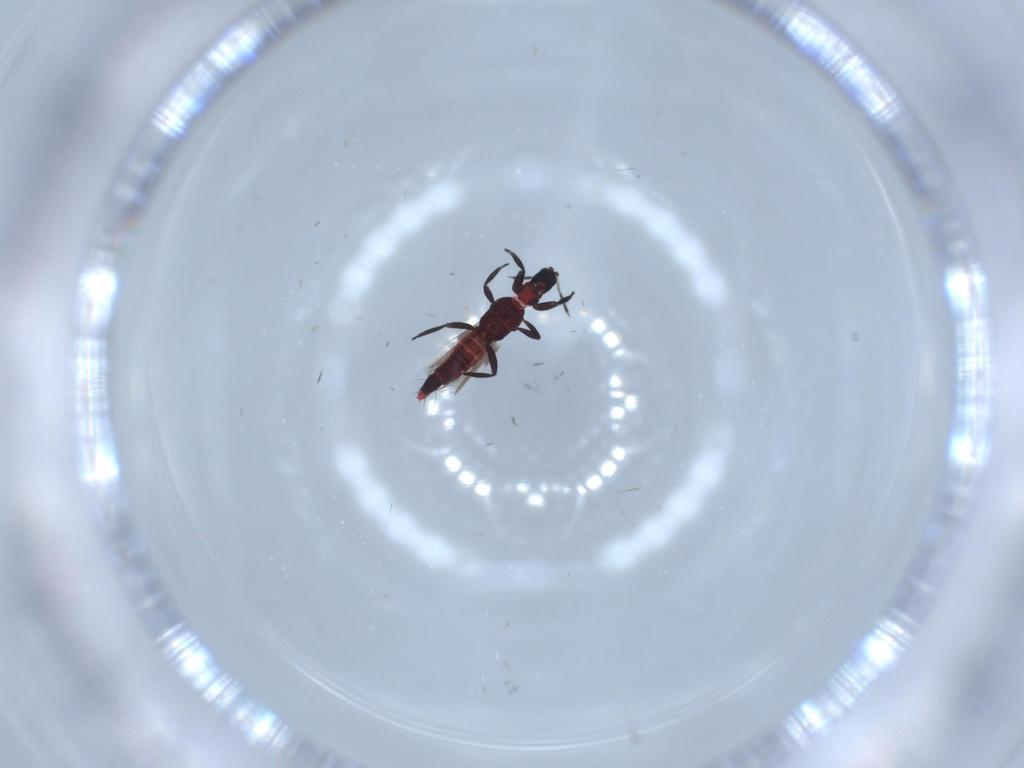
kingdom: Animalia
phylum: Arthropoda
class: Insecta
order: Thysanoptera
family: Aeolothripidae
